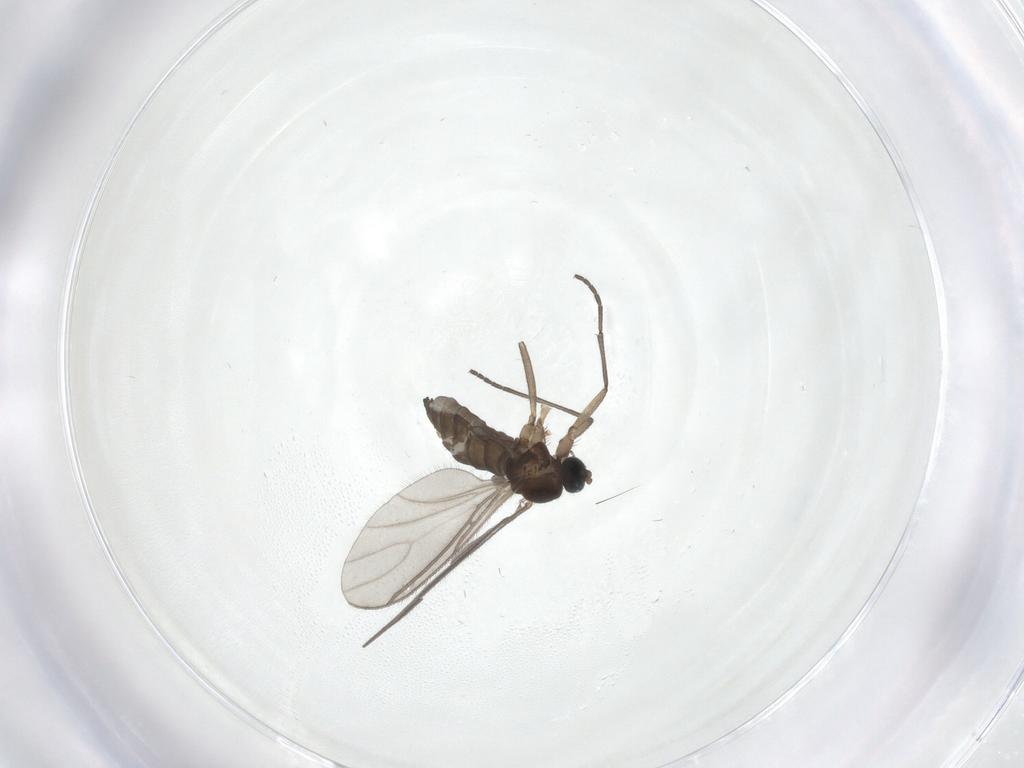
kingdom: Animalia
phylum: Arthropoda
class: Insecta
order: Diptera
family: Sciaridae
